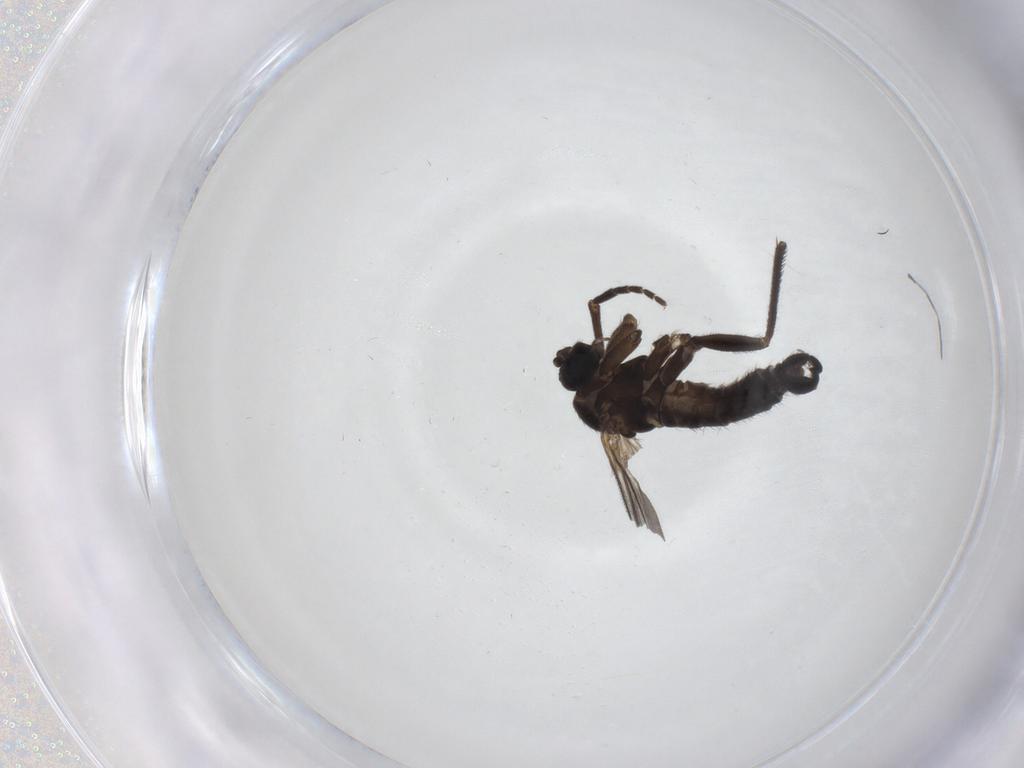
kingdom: Animalia
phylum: Arthropoda
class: Insecta
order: Diptera
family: Sciaridae
